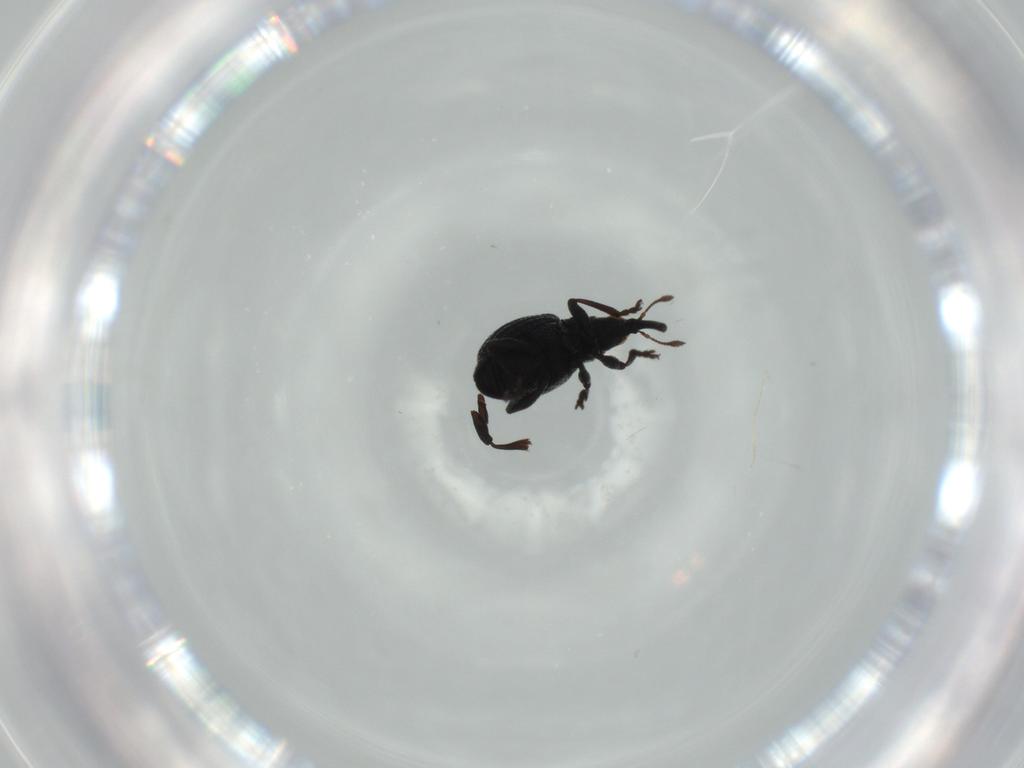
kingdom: Animalia
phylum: Arthropoda
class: Insecta
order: Coleoptera
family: Brentidae
